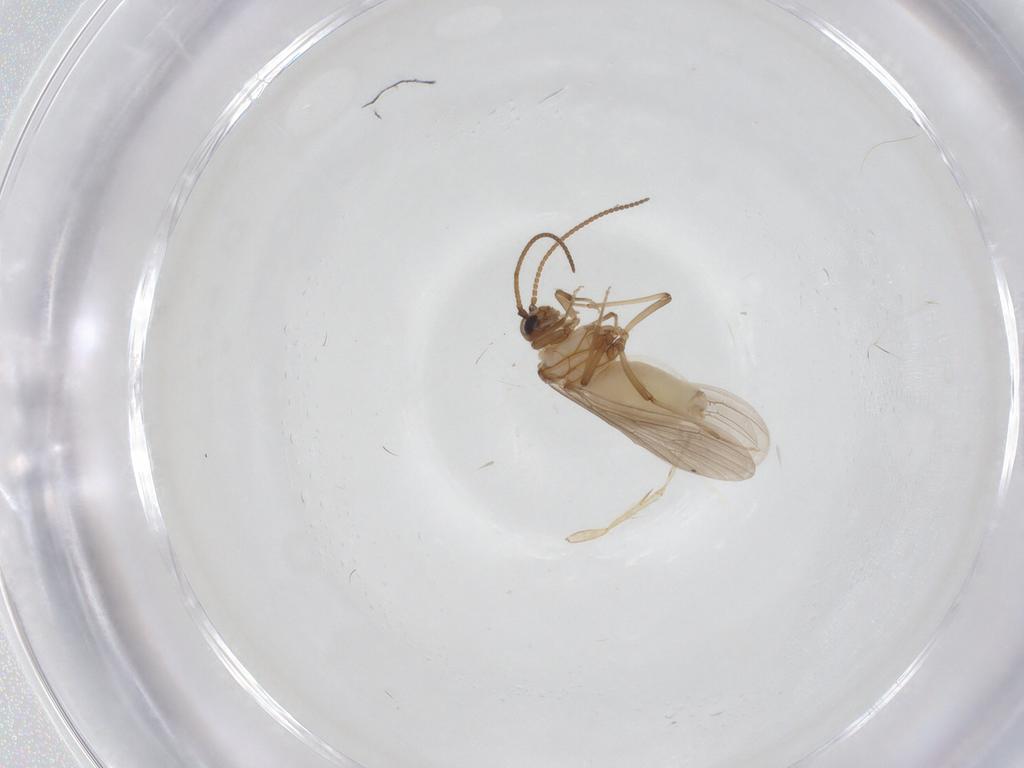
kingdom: Animalia
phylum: Arthropoda
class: Insecta
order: Neuroptera
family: Coniopterygidae
